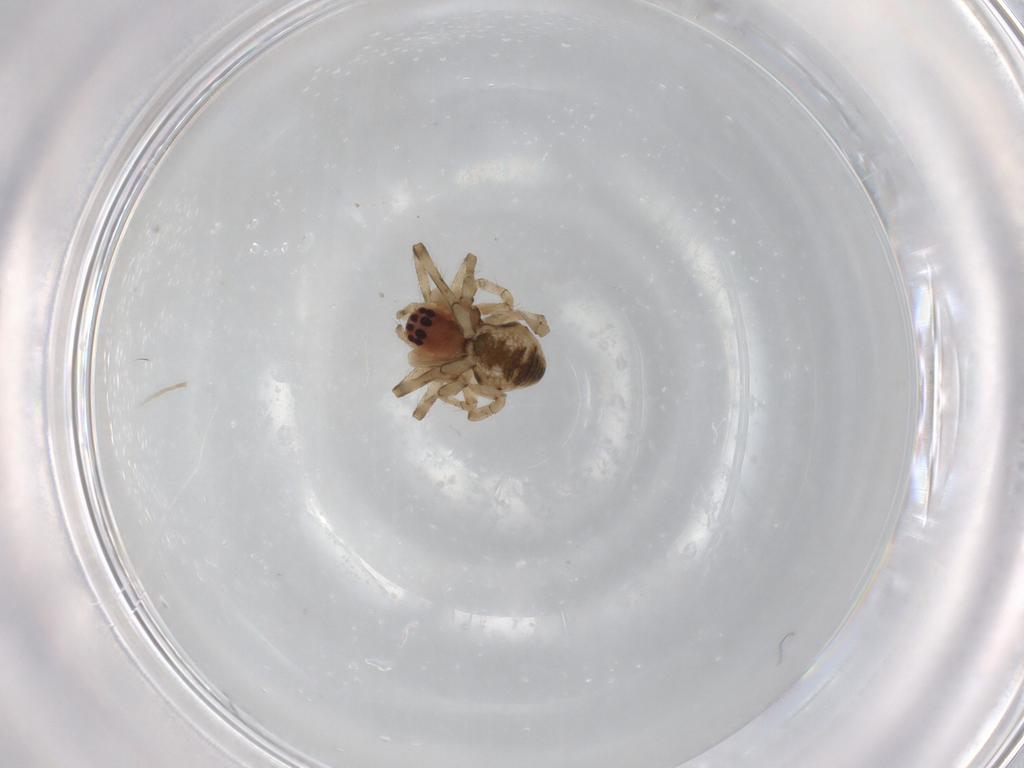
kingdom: Animalia
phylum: Arthropoda
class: Arachnida
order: Araneae
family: Tetragnathidae
